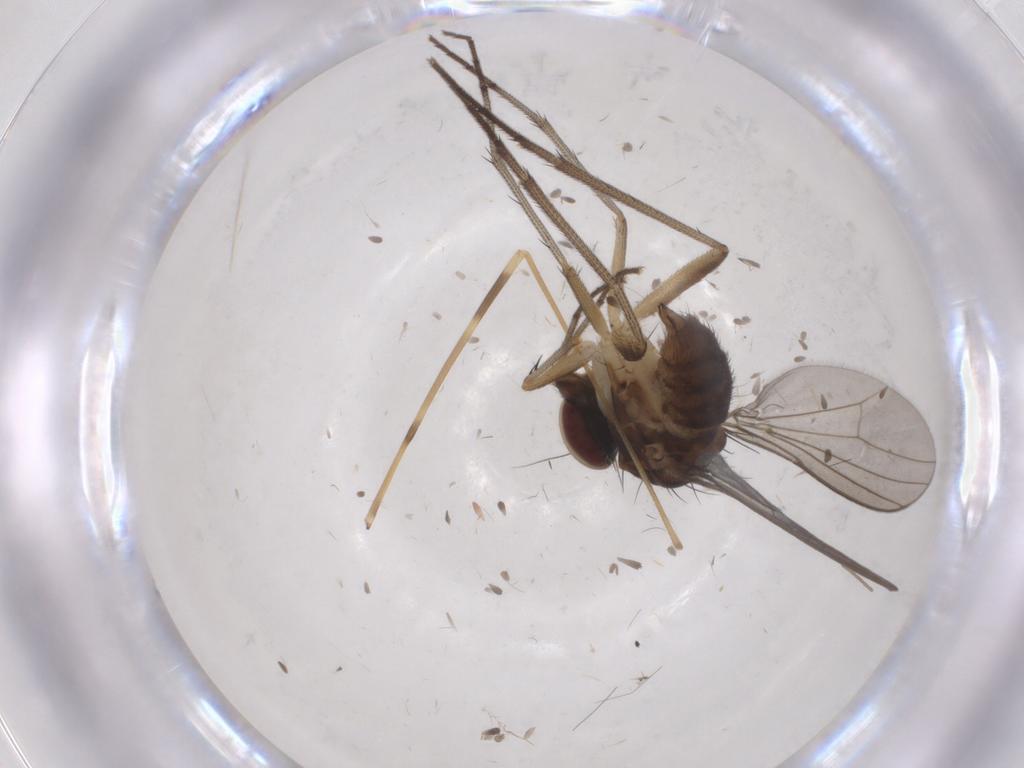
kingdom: Animalia
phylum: Arthropoda
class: Insecta
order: Diptera
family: Dolichopodidae
